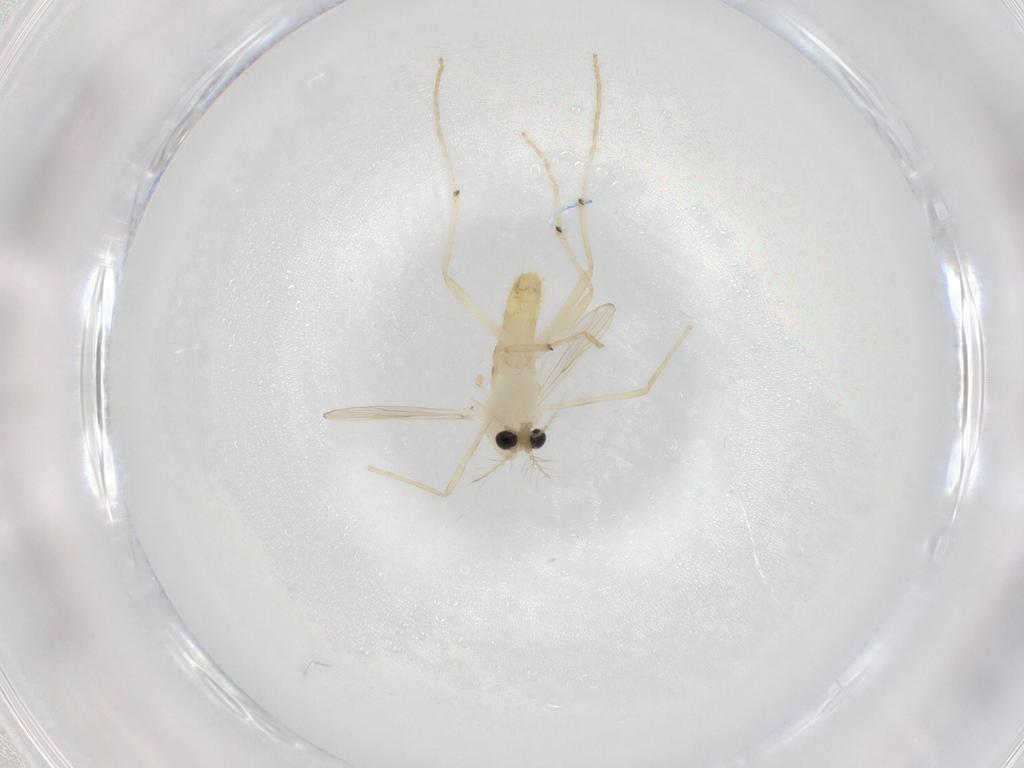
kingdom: Animalia
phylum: Arthropoda
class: Insecta
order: Diptera
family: Chironomidae
